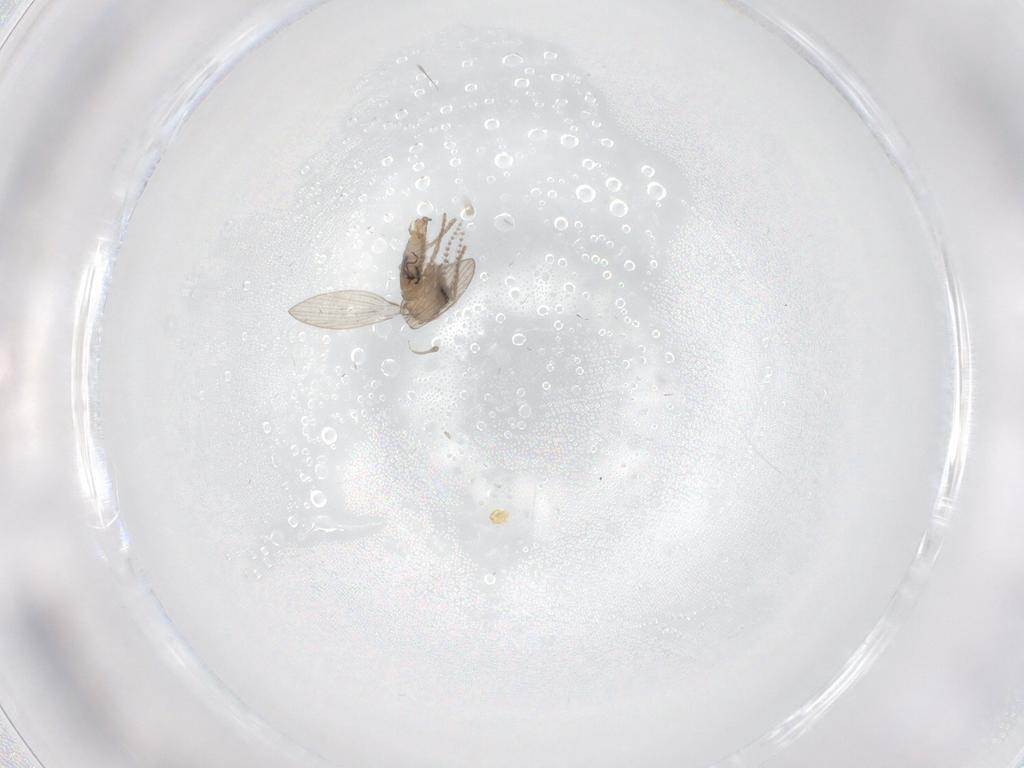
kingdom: Animalia
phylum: Arthropoda
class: Insecta
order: Diptera
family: Psychodidae
